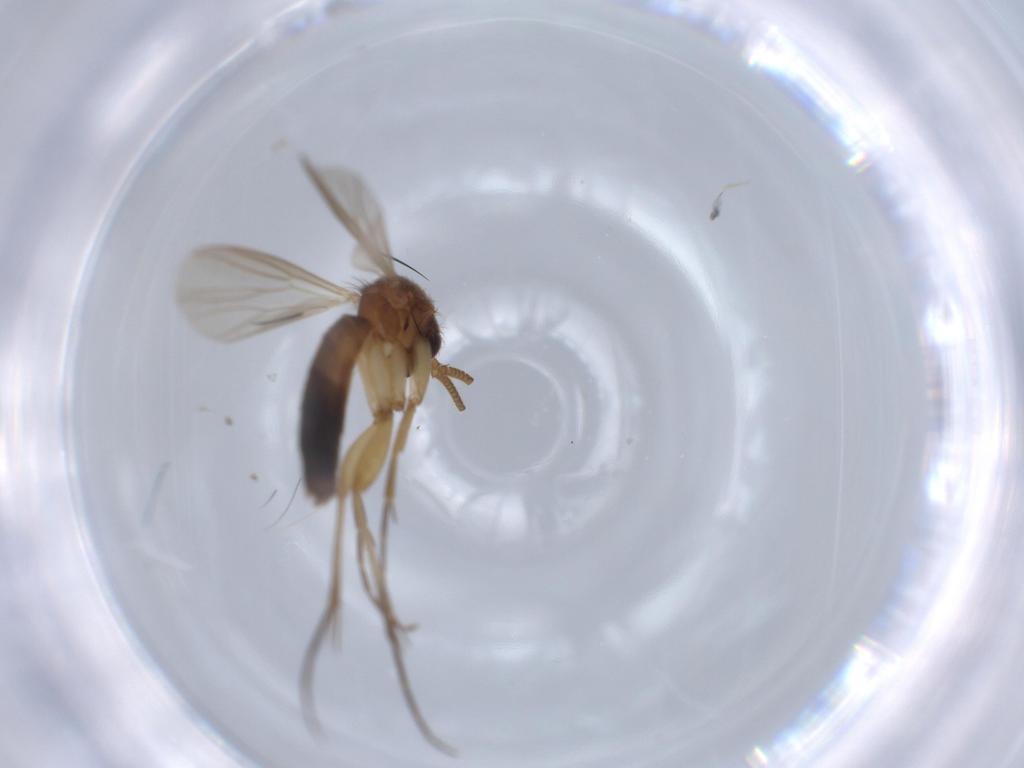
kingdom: Animalia
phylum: Arthropoda
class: Insecta
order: Diptera
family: Mycetophilidae
